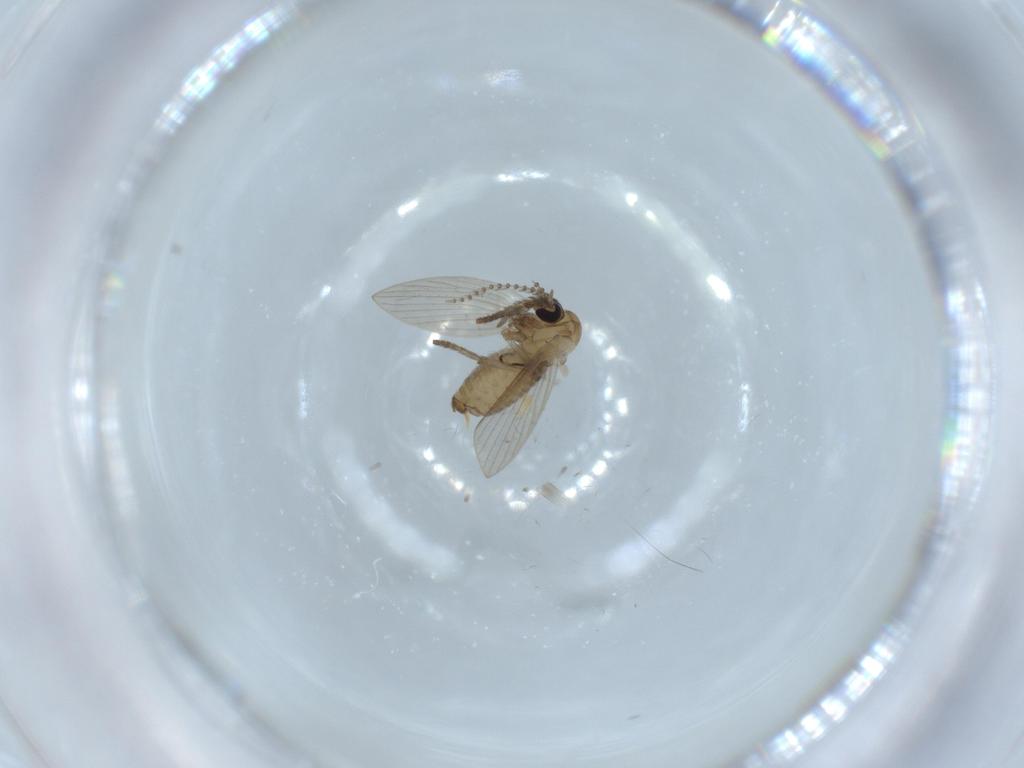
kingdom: Animalia
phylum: Arthropoda
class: Insecta
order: Diptera
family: Psychodidae
